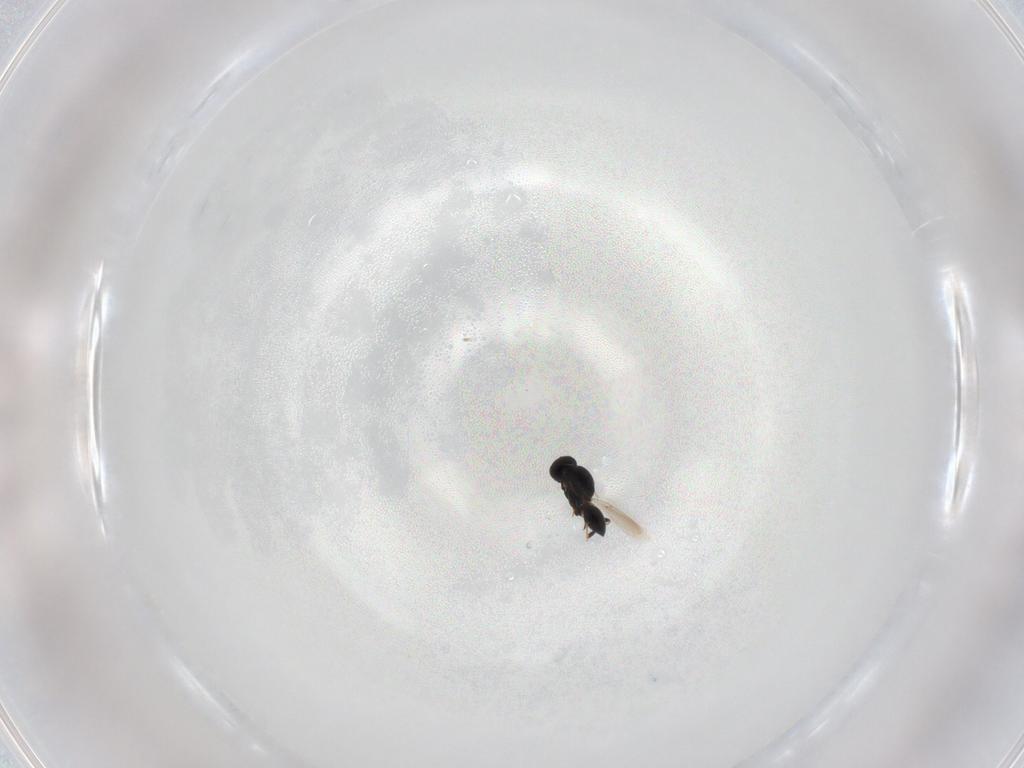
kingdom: Animalia
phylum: Arthropoda
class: Insecta
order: Hymenoptera
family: Platygastridae
